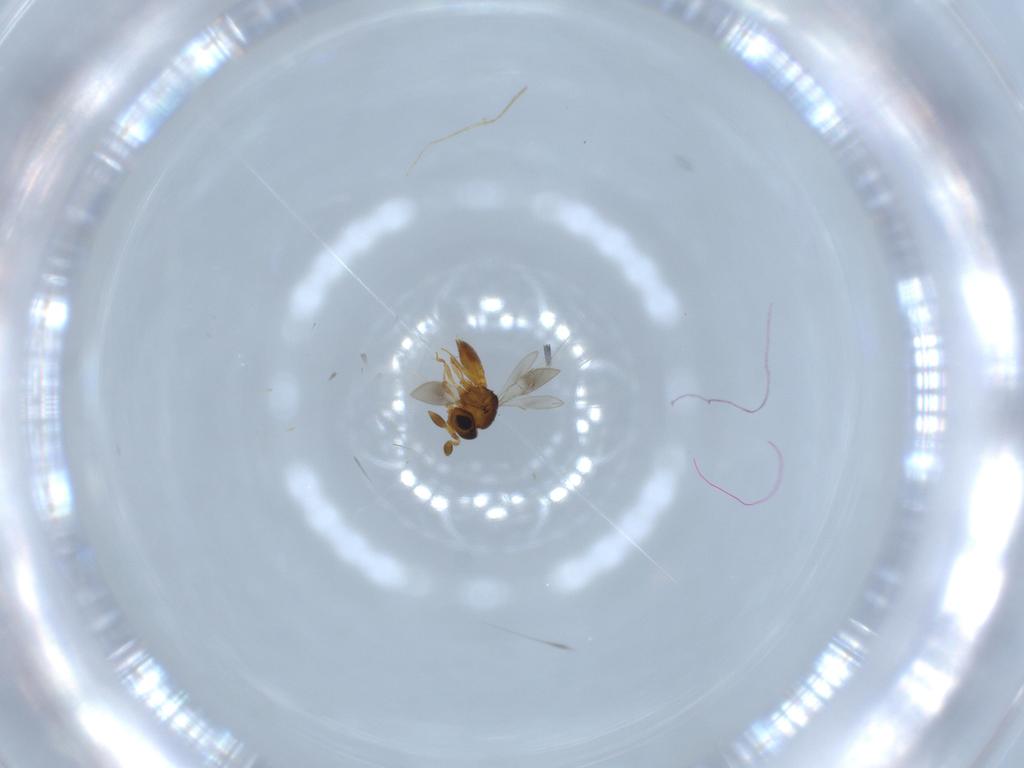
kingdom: Animalia
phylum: Arthropoda
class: Insecta
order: Hymenoptera
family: Scelionidae
